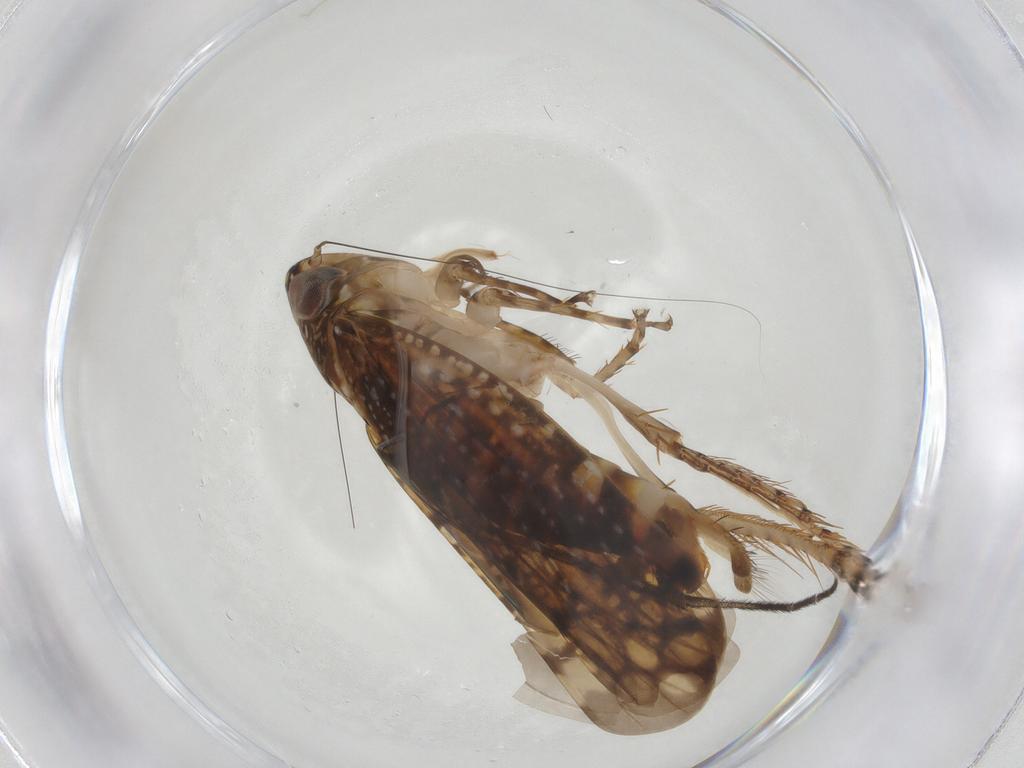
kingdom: Animalia
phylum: Arthropoda
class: Insecta
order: Hemiptera
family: Cicadellidae
